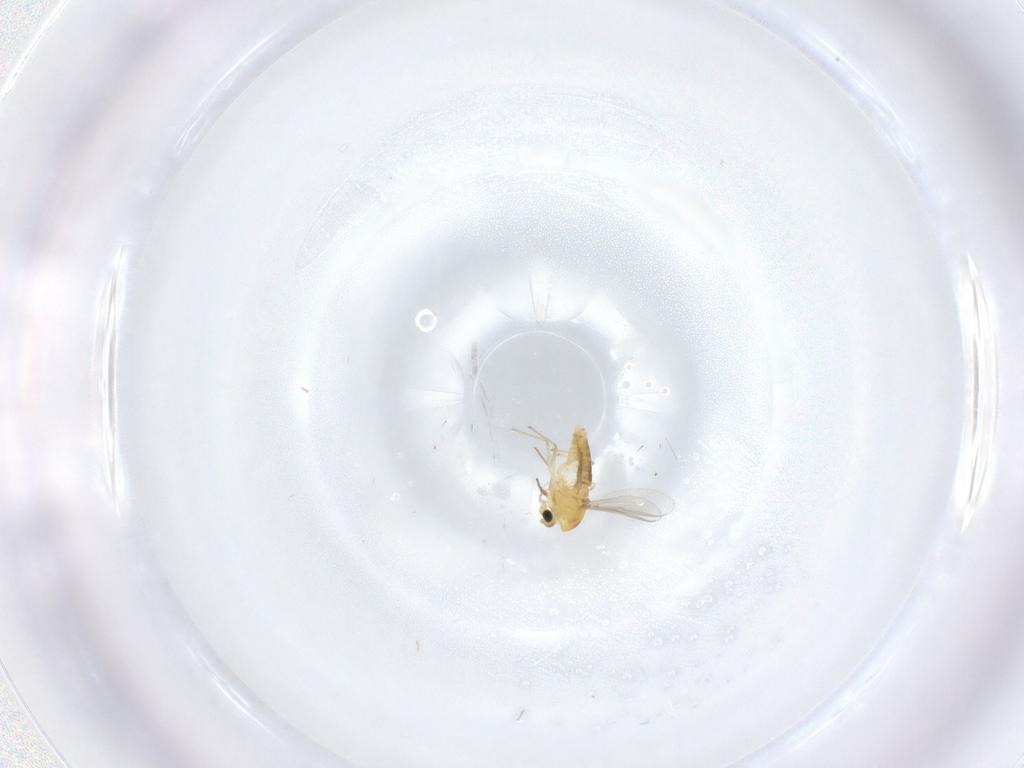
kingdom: Animalia
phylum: Arthropoda
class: Insecta
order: Diptera
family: Chironomidae
